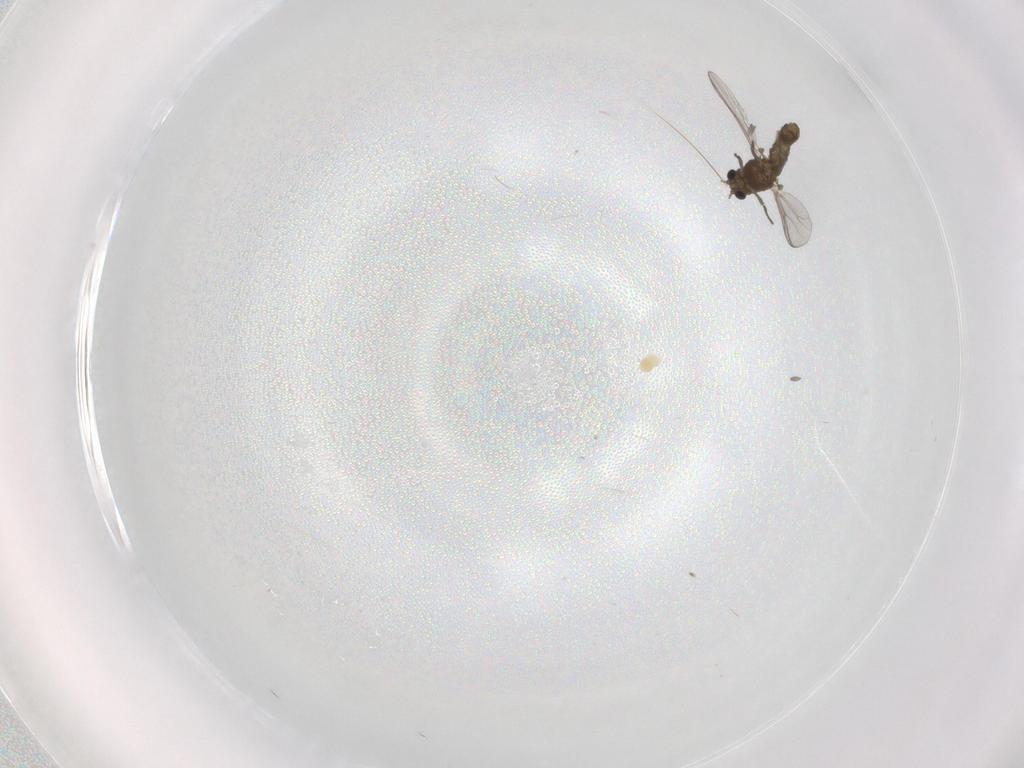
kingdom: Animalia
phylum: Arthropoda
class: Insecta
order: Diptera
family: Chironomidae
